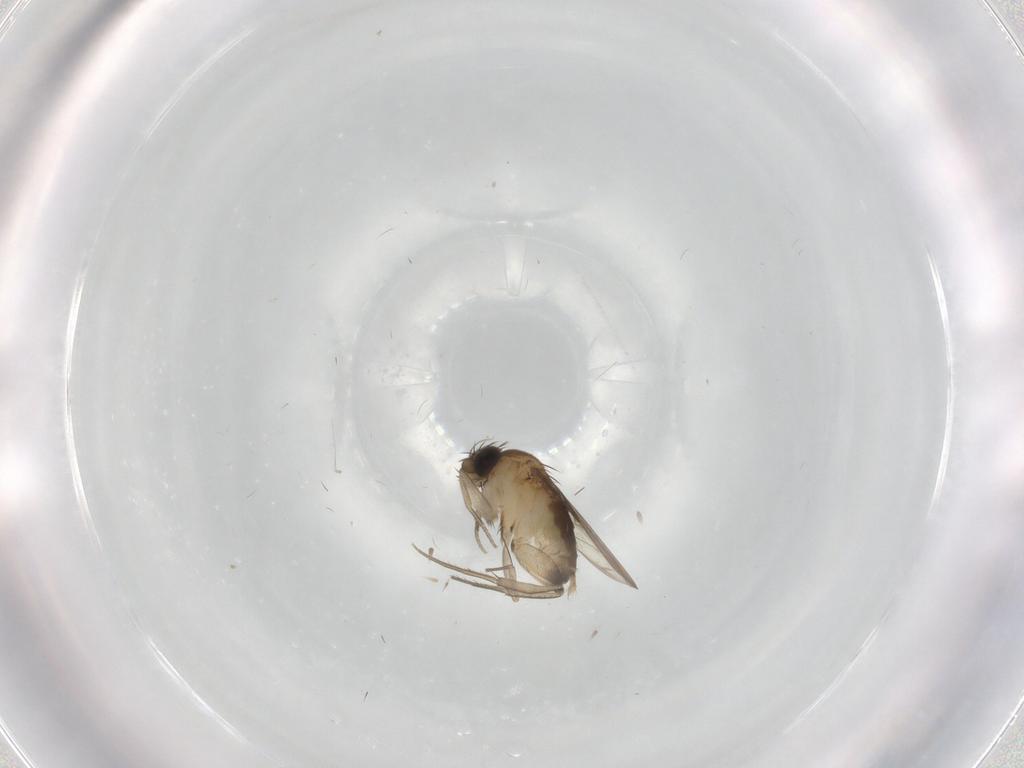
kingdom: Animalia
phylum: Arthropoda
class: Insecta
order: Diptera
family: Phoridae
